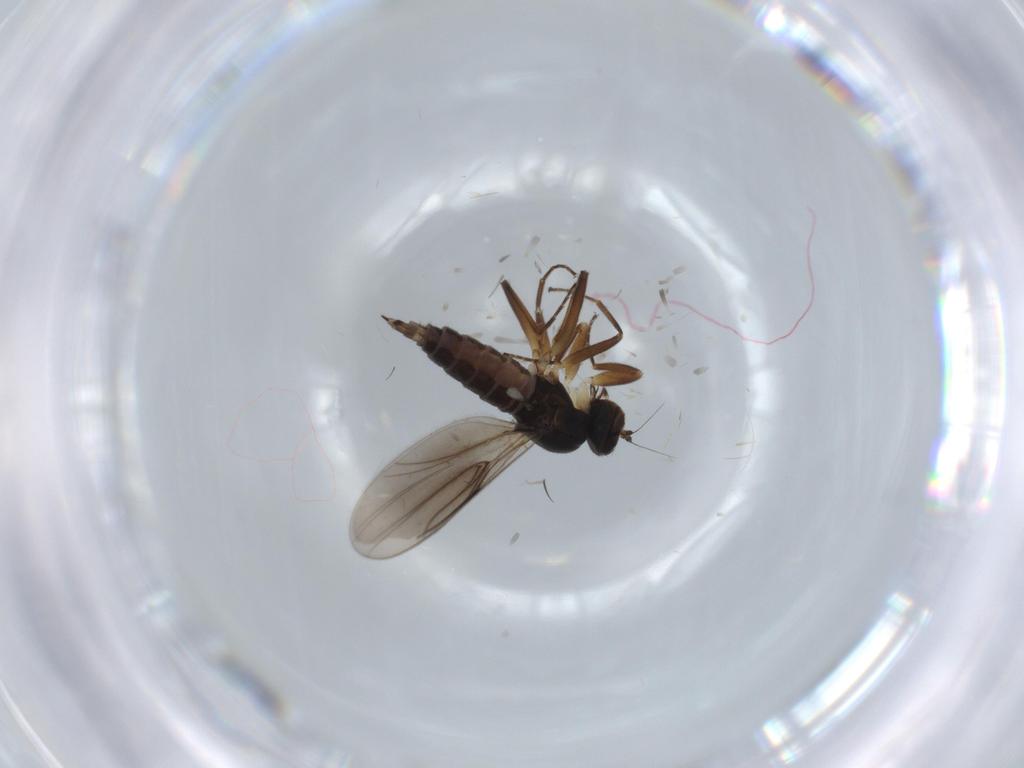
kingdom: Animalia
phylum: Arthropoda
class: Insecta
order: Diptera
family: Hybotidae
